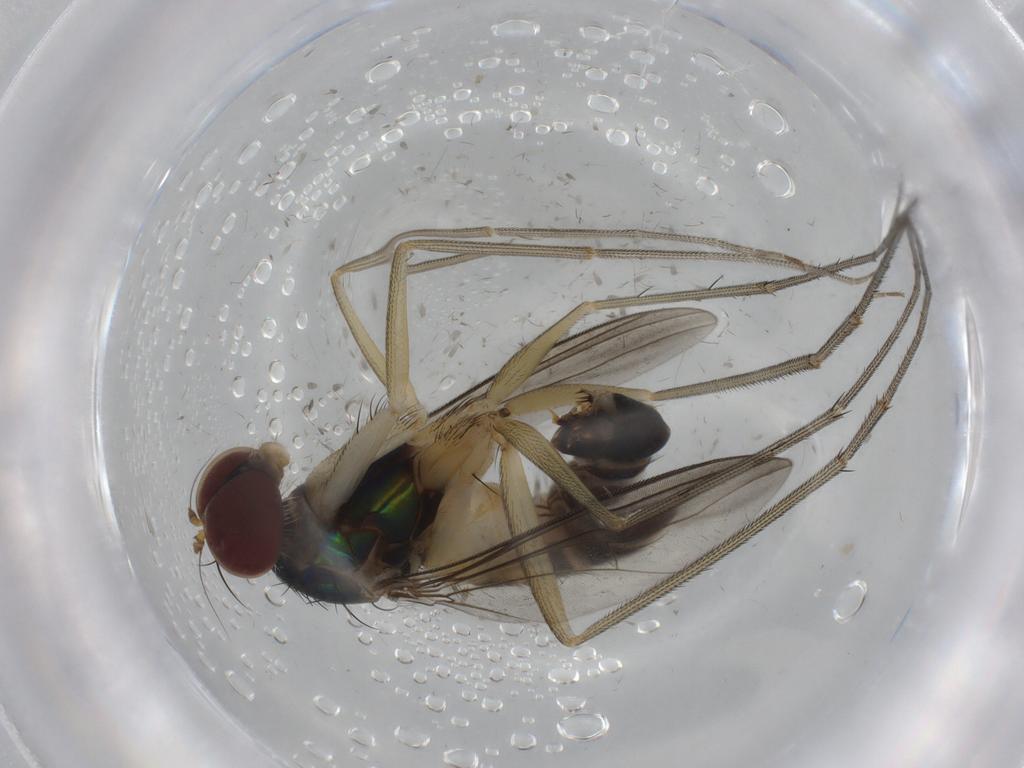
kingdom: Animalia
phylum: Arthropoda
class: Insecta
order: Diptera
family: Dolichopodidae
